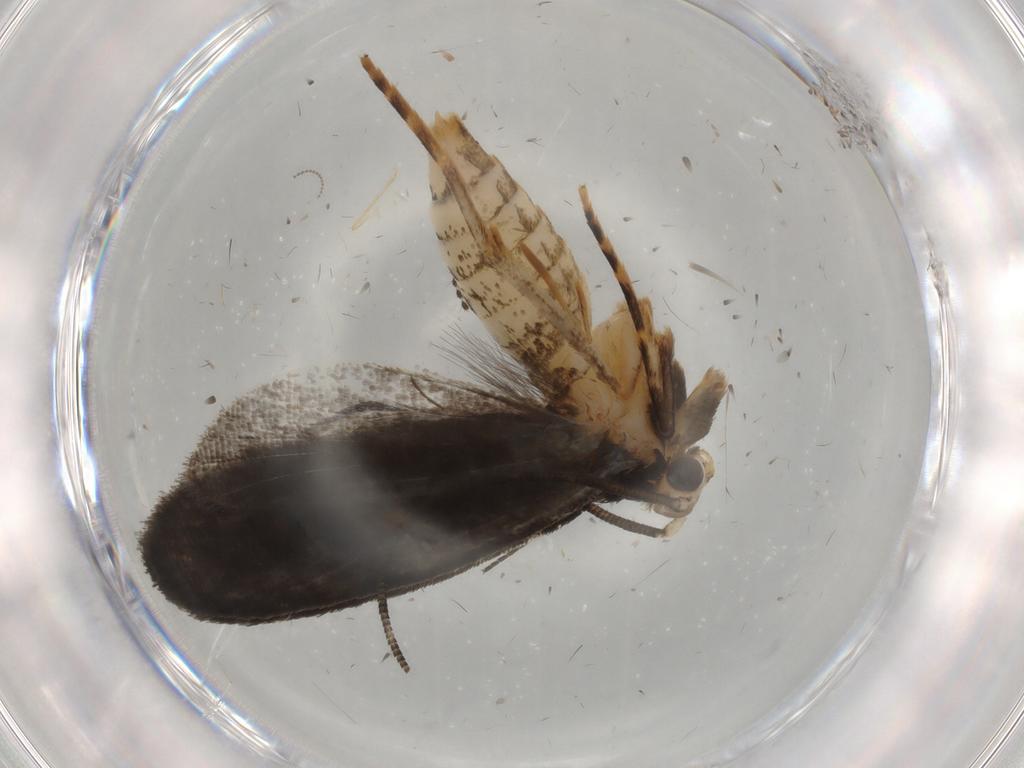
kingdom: Animalia
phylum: Arthropoda
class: Insecta
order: Lepidoptera
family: Tineidae
